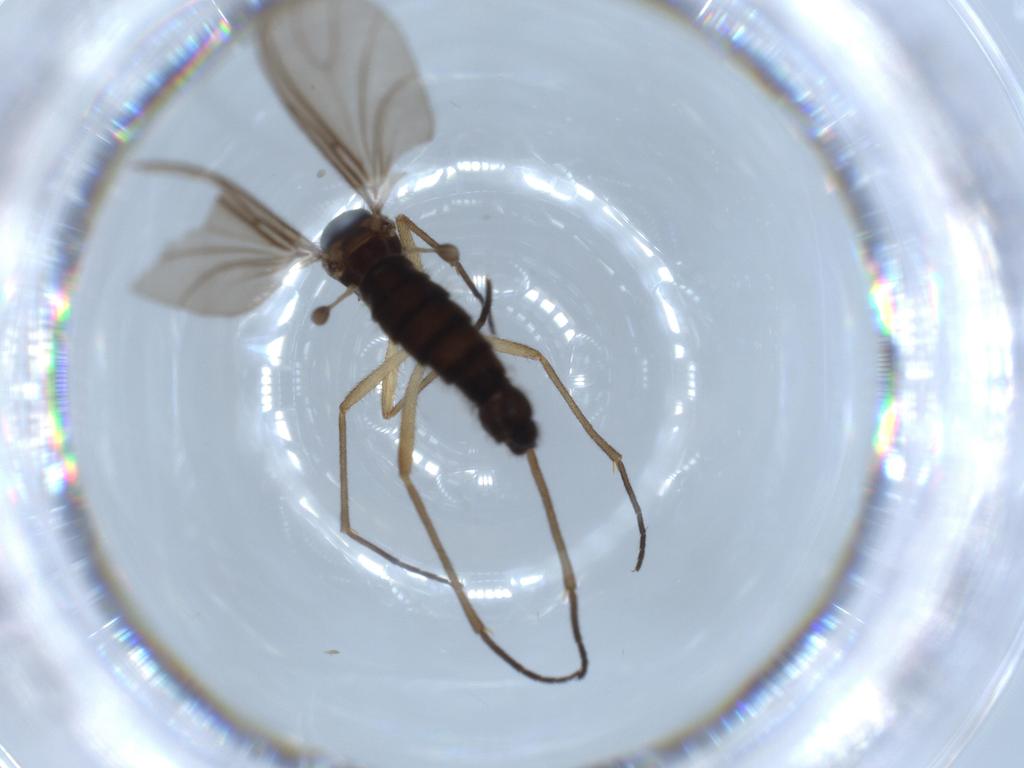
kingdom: Animalia
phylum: Arthropoda
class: Insecta
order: Diptera
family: Sciaridae
